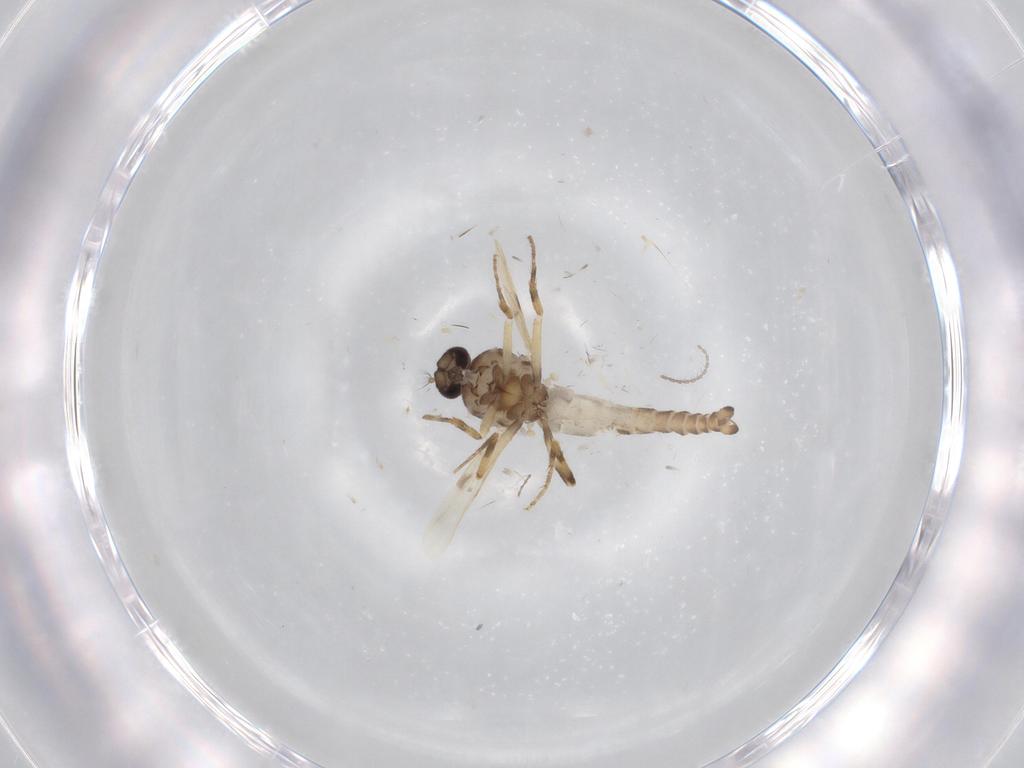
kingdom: Animalia
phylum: Arthropoda
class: Insecta
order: Diptera
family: Ceratopogonidae
